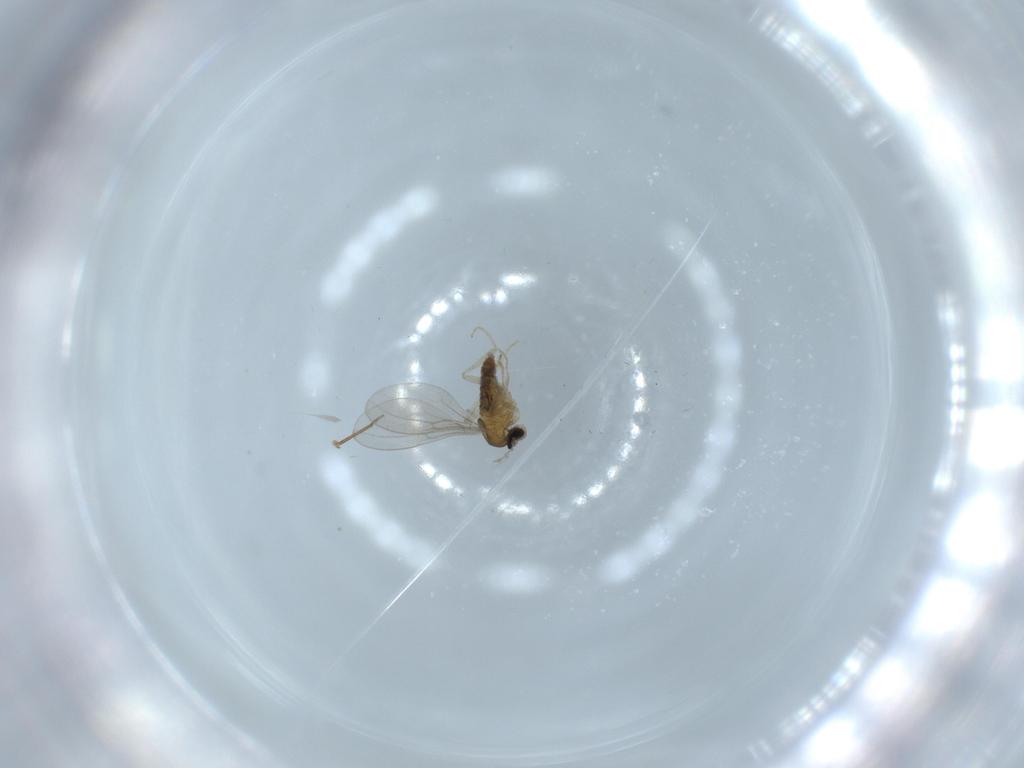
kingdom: Animalia
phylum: Arthropoda
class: Insecta
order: Diptera
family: Cecidomyiidae
